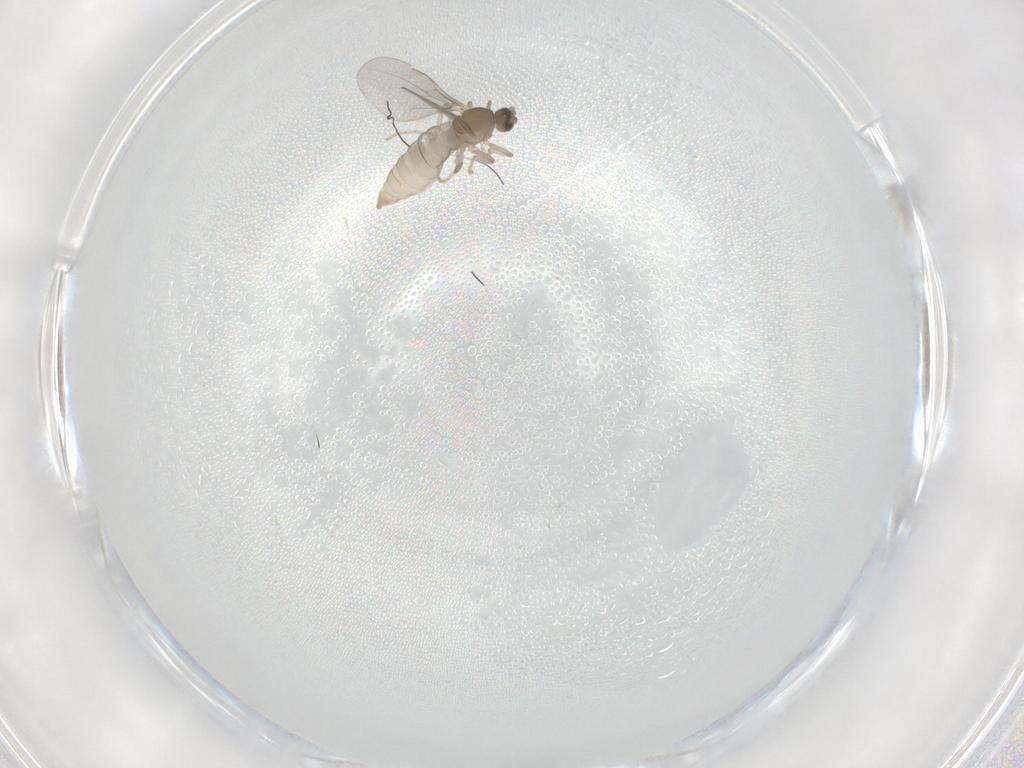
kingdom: Animalia
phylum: Arthropoda
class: Insecta
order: Diptera
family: Cecidomyiidae
